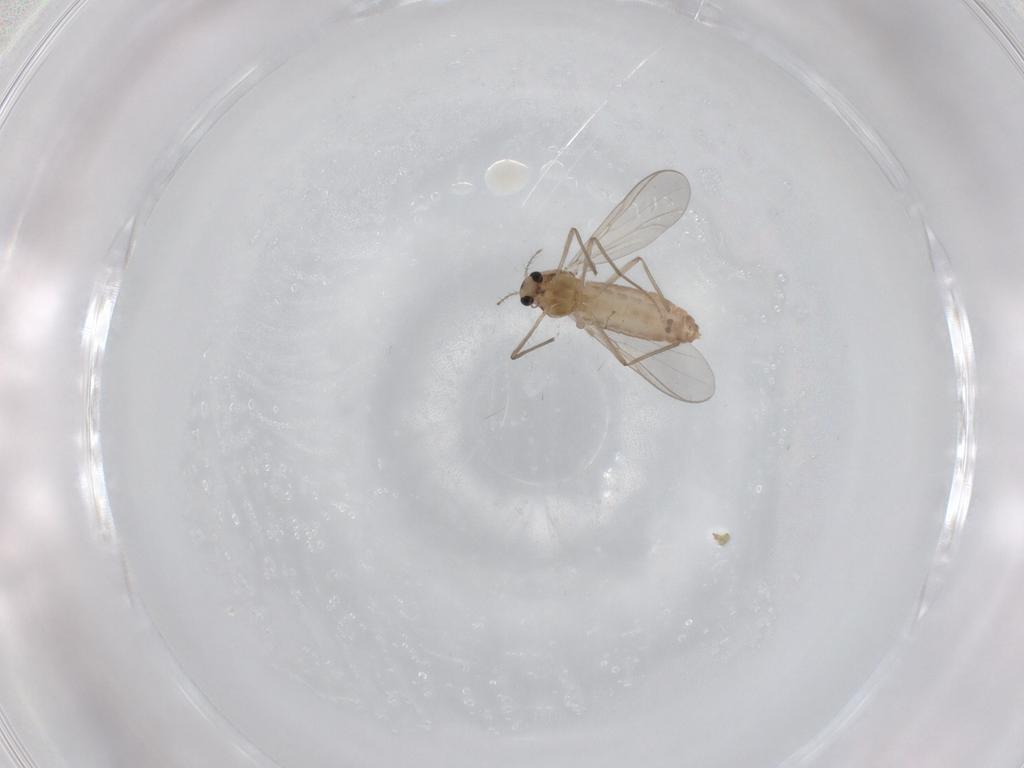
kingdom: Animalia
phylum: Arthropoda
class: Insecta
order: Diptera
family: Chironomidae
